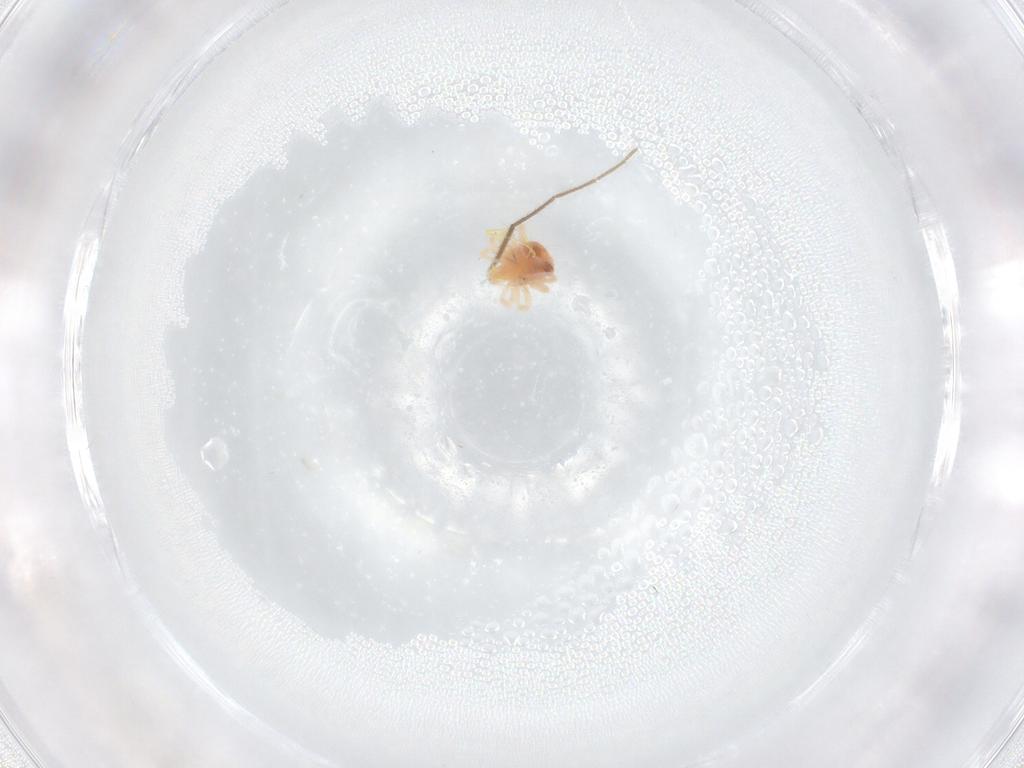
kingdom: Animalia
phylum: Arthropoda
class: Arachnida
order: Trombidiformes
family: Anystidae
